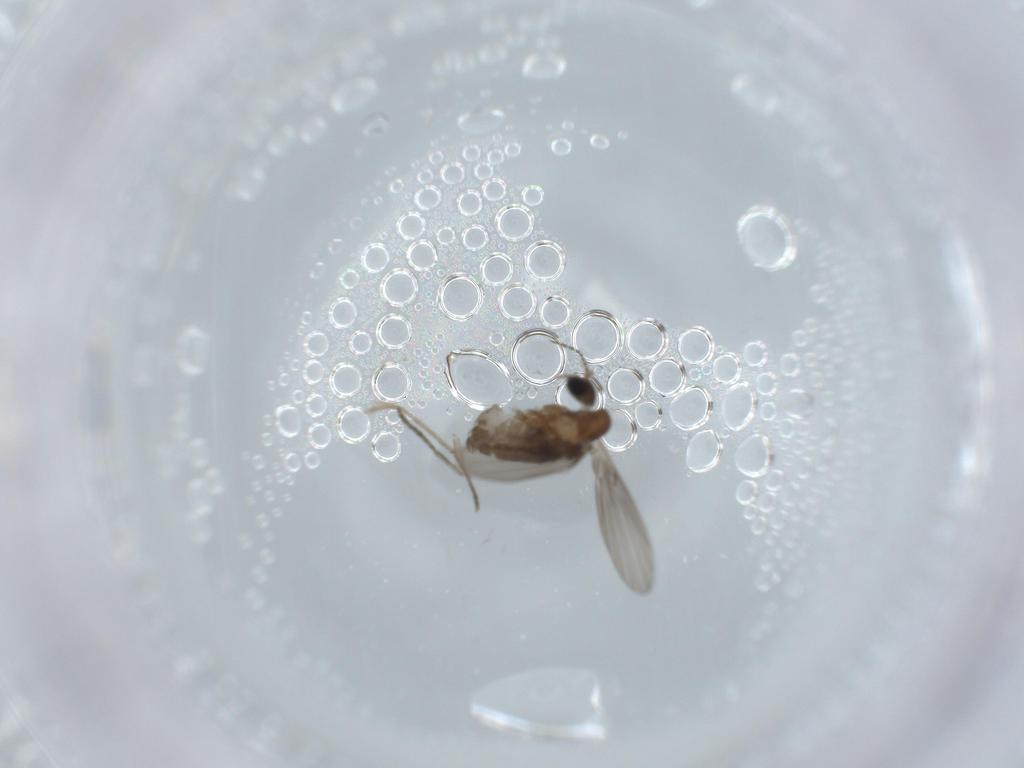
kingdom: Animalia
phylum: Arthropoda
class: Insecta
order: Diptera
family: Psychodidae
